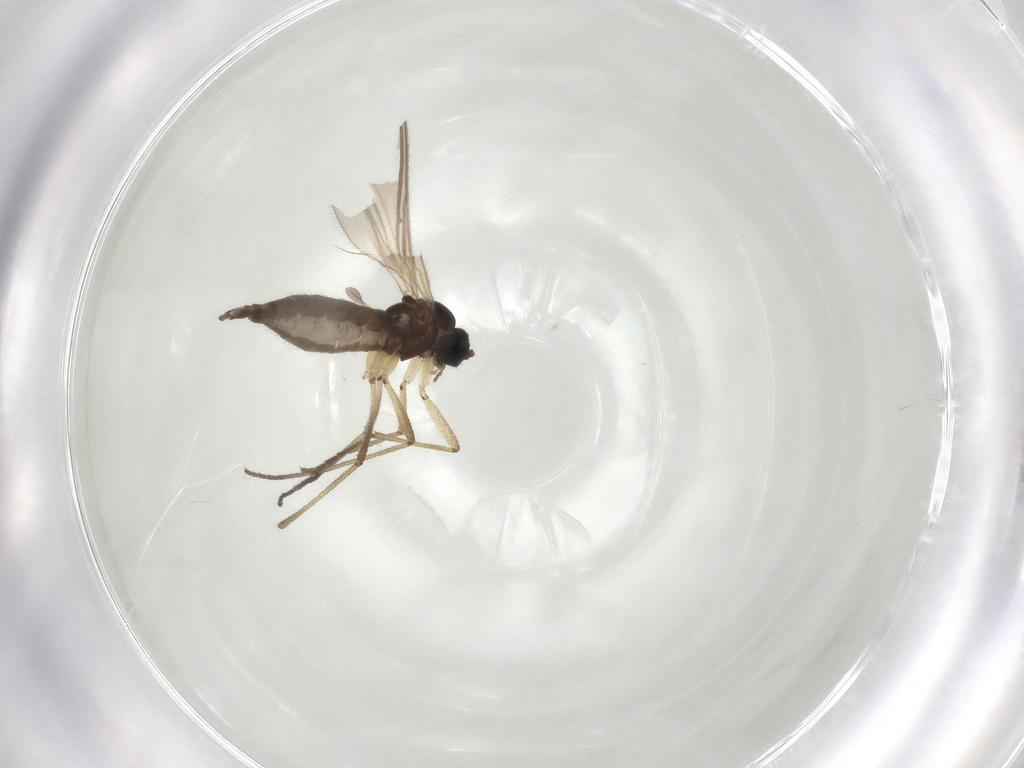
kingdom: Animalia
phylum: Arthropoda
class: Insecta
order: Diptera
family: Sciaridae
